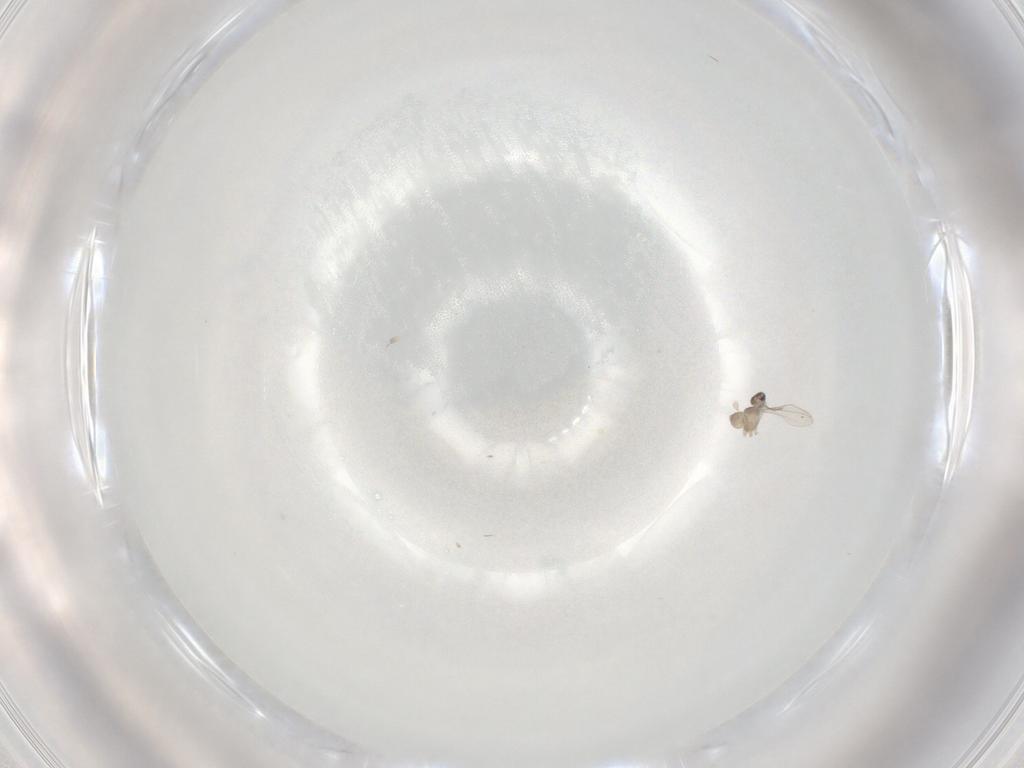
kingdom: Animalia
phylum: Arthropoda
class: Insecta
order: Diptera
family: Cecidomyiidae
